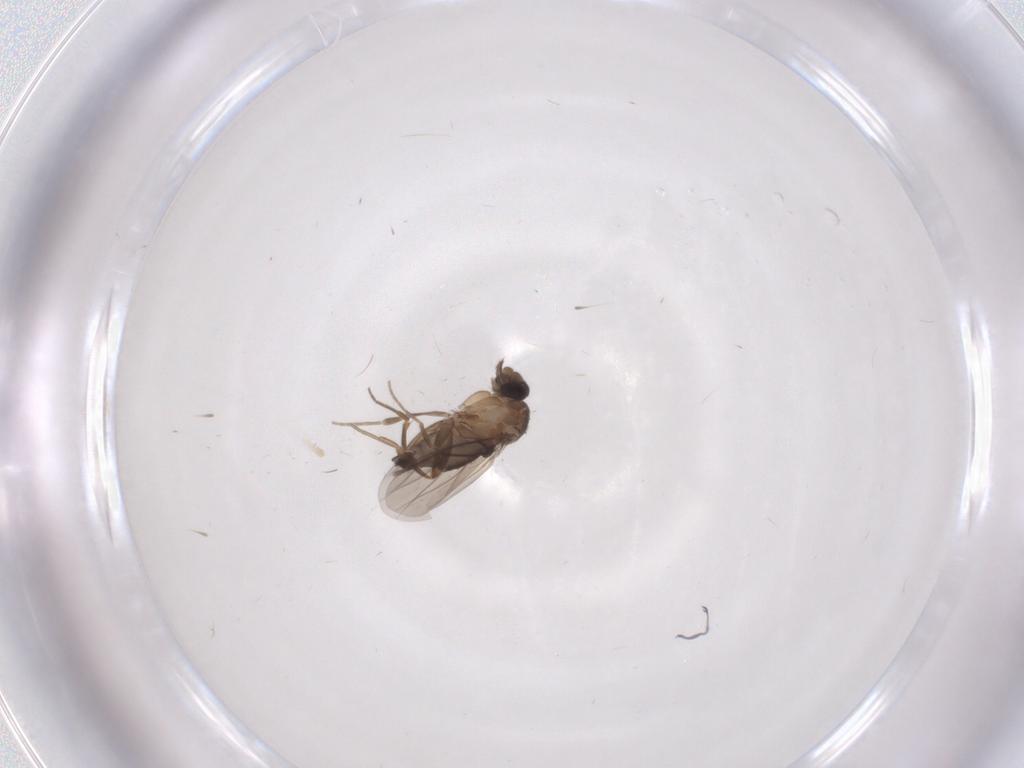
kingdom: Animalia
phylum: Arthropoda
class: Insecta
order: Diptera
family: Phoridae
